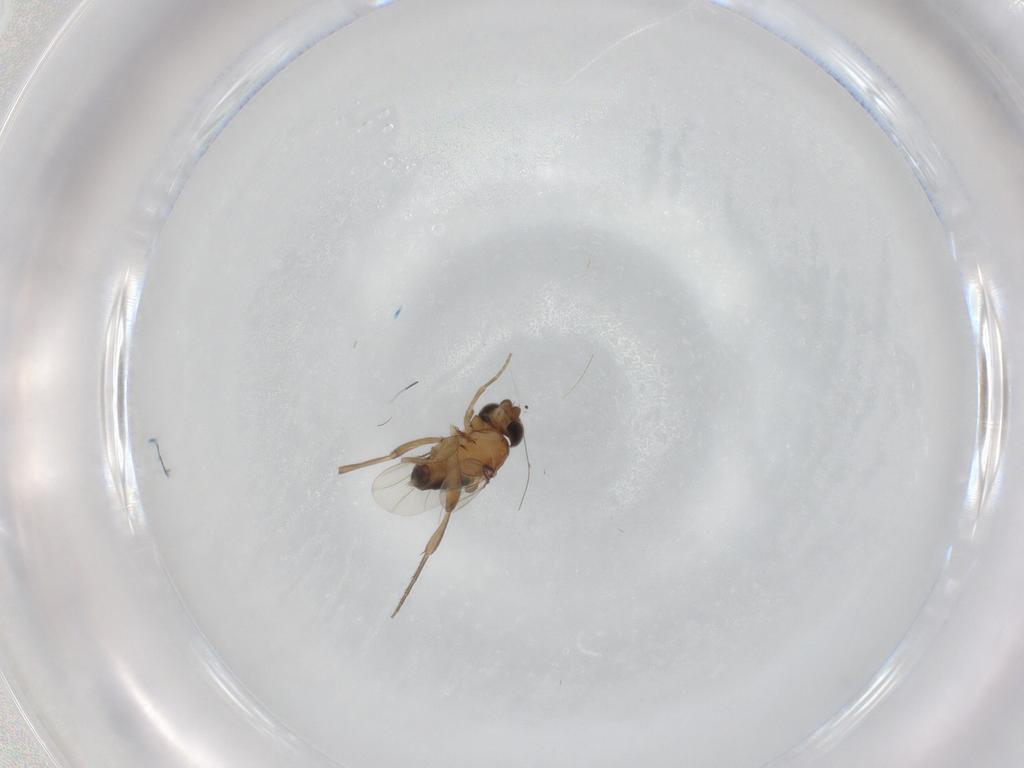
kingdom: Animalia
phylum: Arthropoda
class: Insecta
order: Diptera
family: Phoridae
